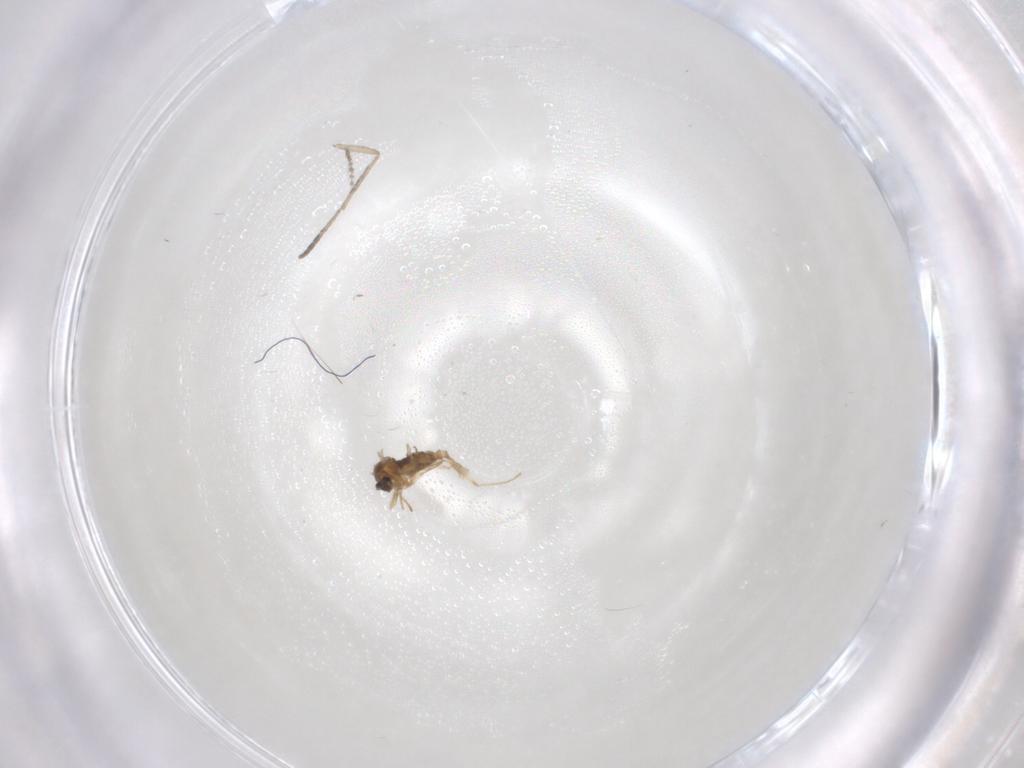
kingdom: Animalia
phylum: Arthropoda
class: Insecta
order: Diptera
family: Cecidomyiidae
